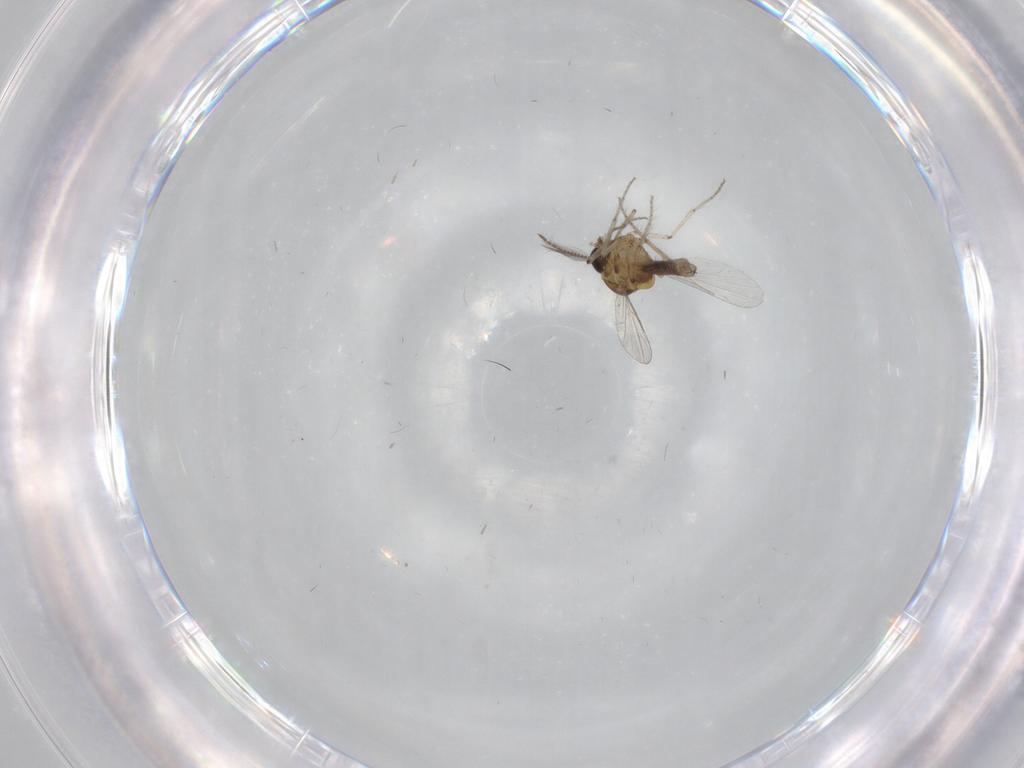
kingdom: Animalia
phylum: Arthropoda
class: Insecta
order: Diptera
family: Ceratopogonidae
